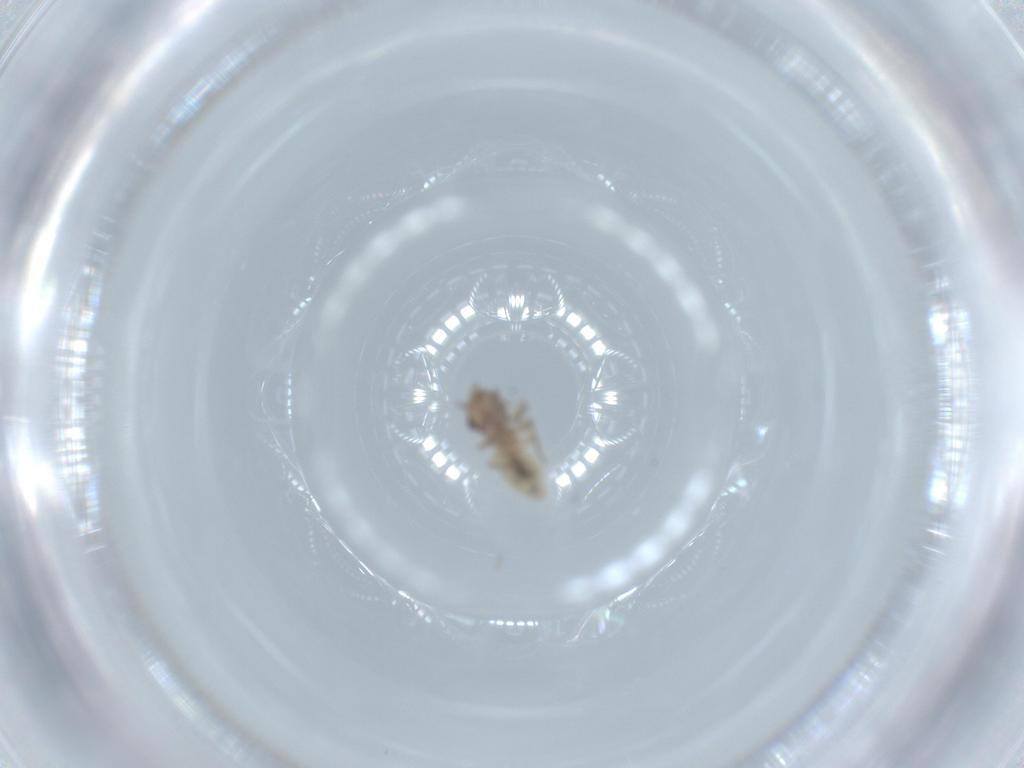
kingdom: Animalia
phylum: Arthropoda
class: Insecta
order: Psocodea
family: Lepidopsocidae
